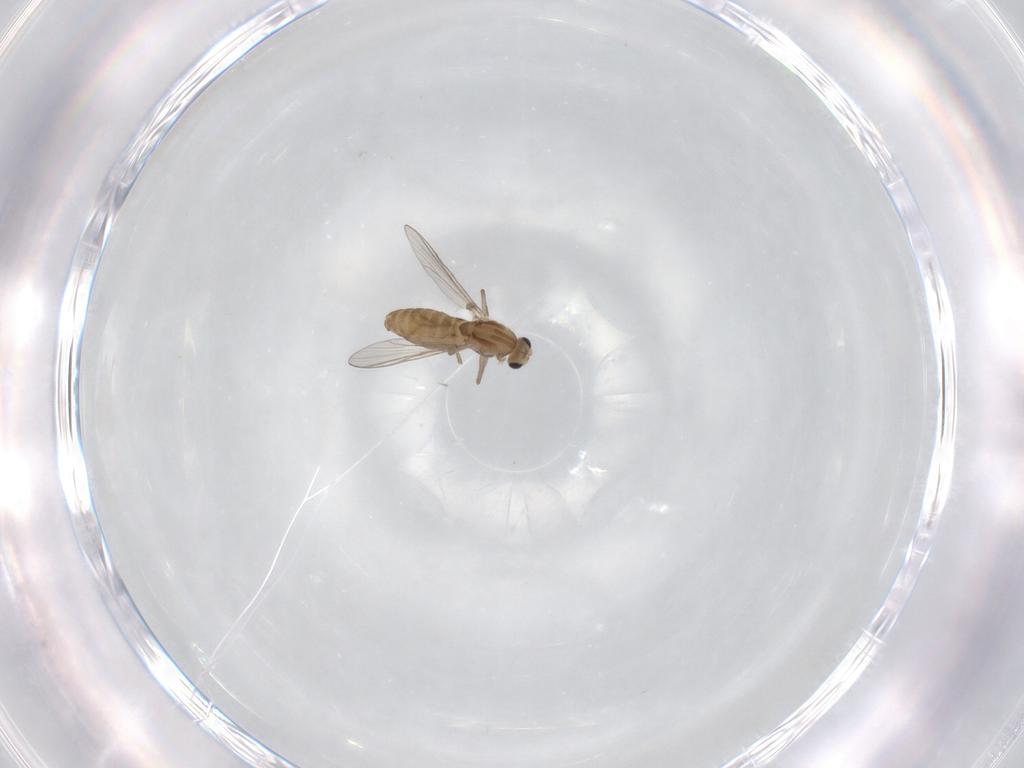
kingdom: Animalia
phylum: Arthropoda
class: Insecta
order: Diptera
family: Chironomidae
